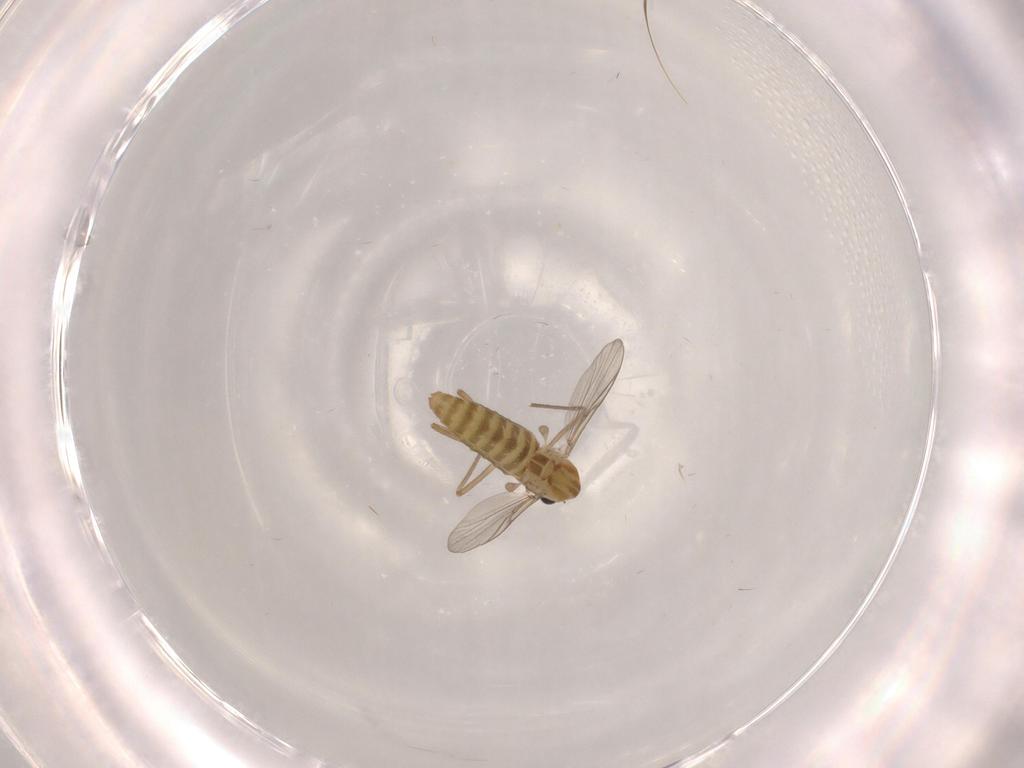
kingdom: Animalia
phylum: Arthropoda
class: Insecta
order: Diptera
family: Chironomidae
